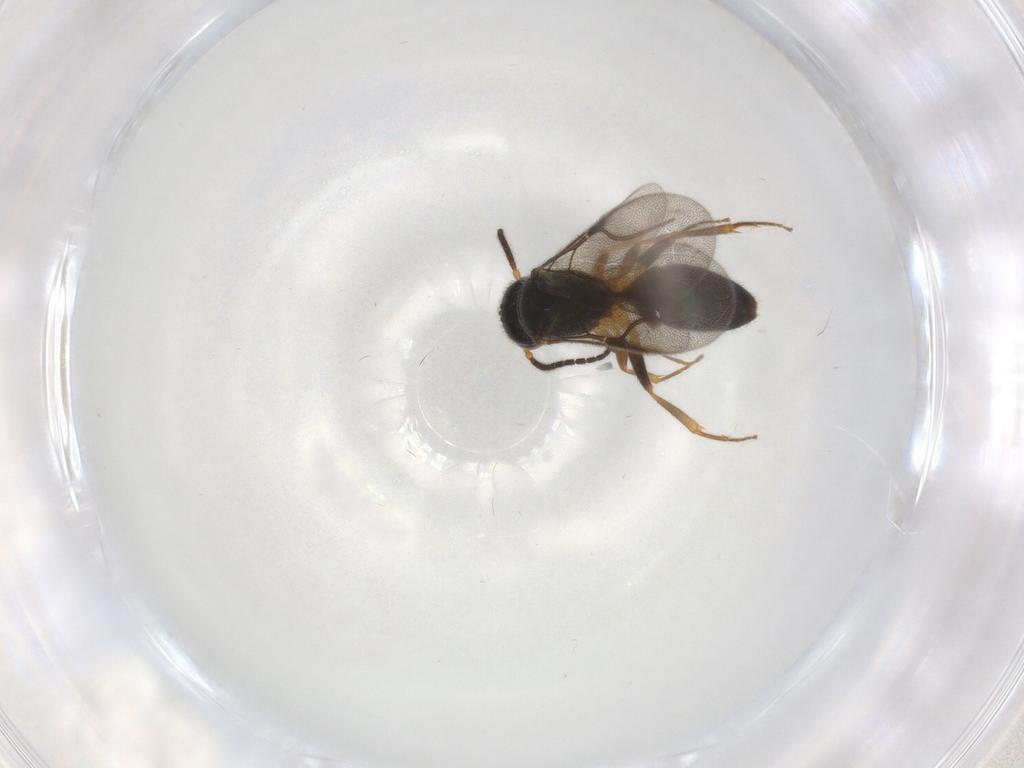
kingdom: Animalia
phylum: Arthropoda
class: Insecta
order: Hymenoptera
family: Bethylidae
